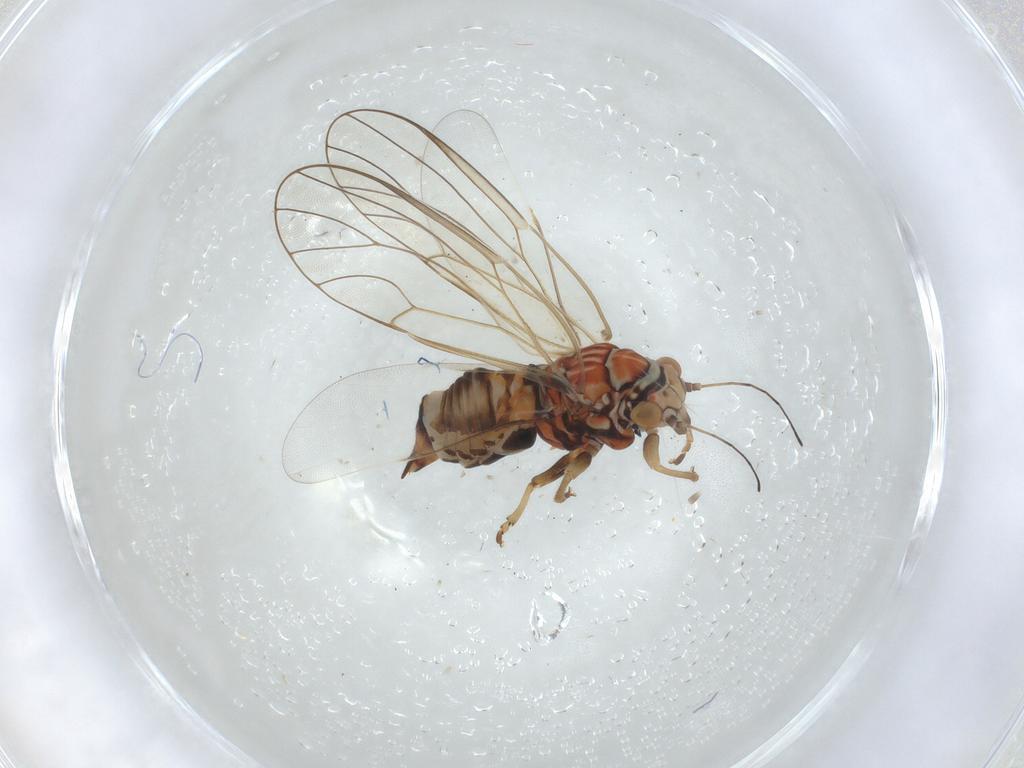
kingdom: Animalia
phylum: Arthropoda
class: Insecta
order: Hemiptera
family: Psyllidae
